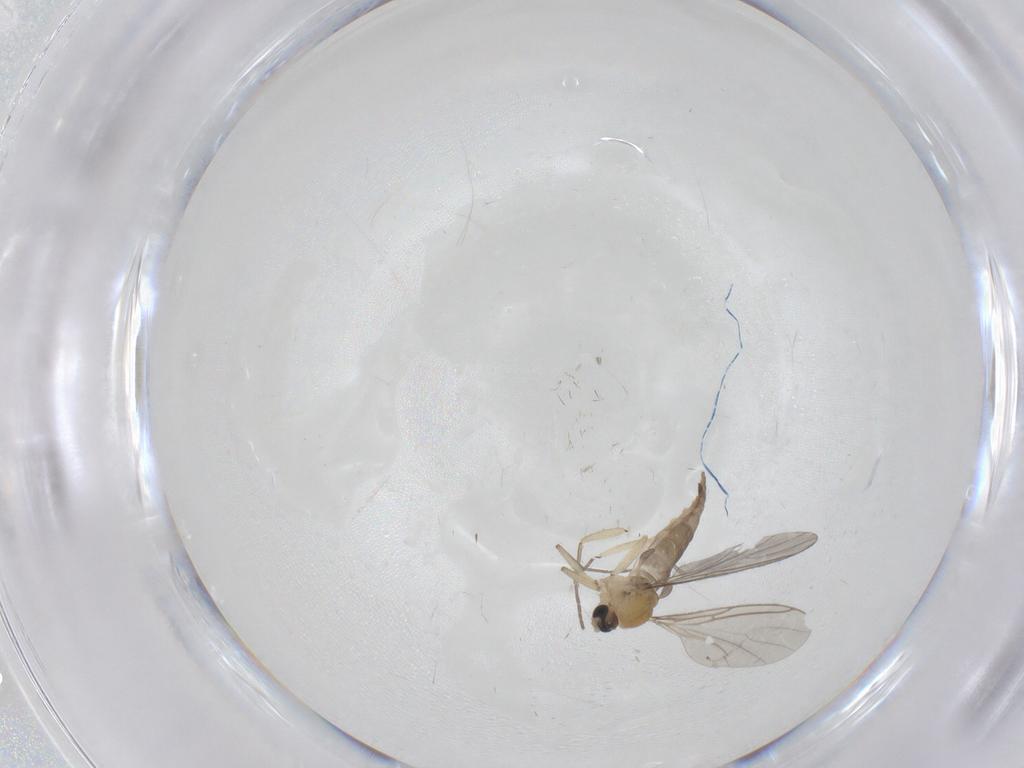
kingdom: Animalia
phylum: Arthropoda
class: Insecta
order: Diptera
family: Sciaridae
